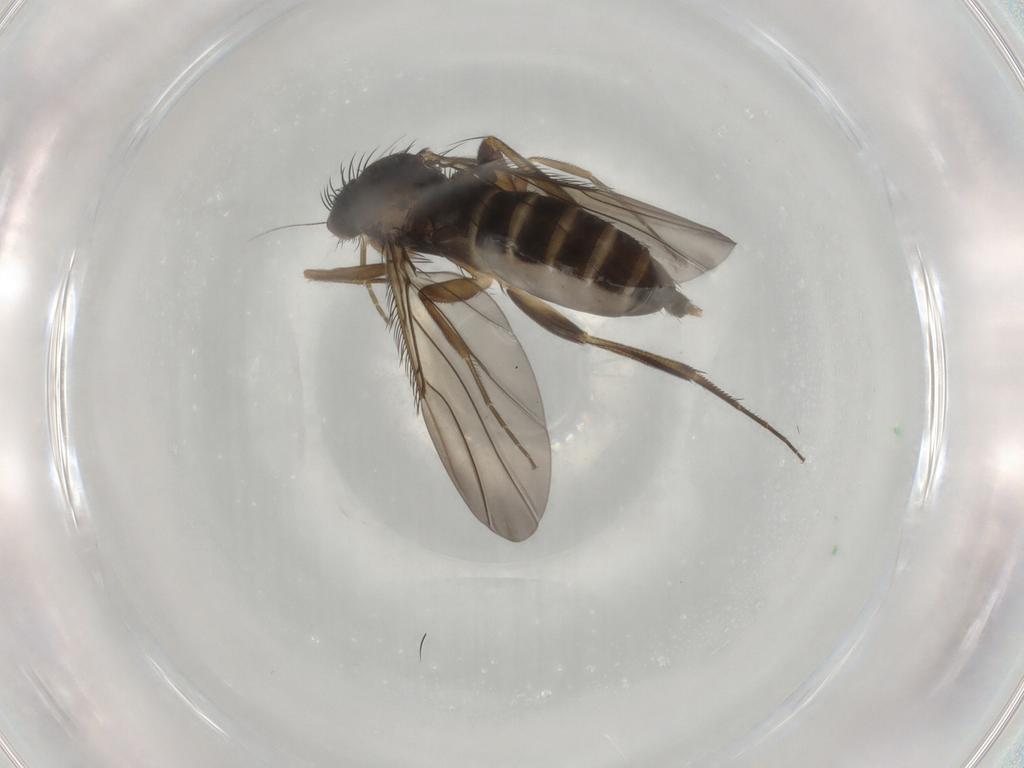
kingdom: Animalia
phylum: Arthropoda
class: Insecta
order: Diptera
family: Phoridae
